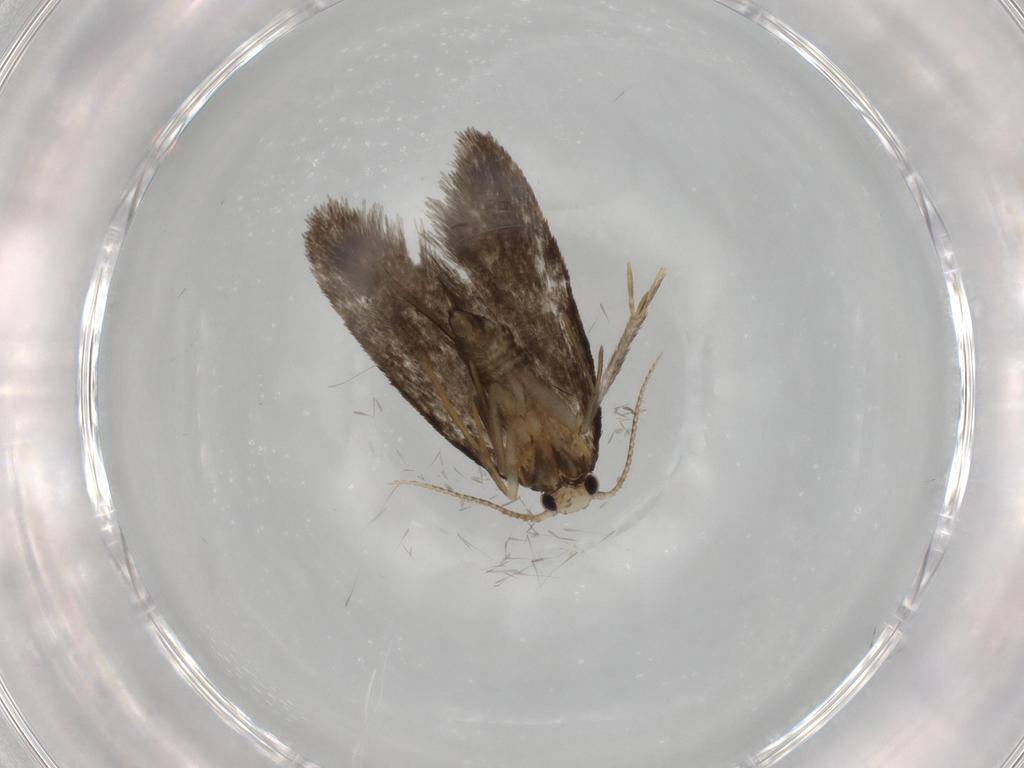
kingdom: Animalia
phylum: Arthropoda
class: Insecta
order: Lepidoptera
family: Psychidae
